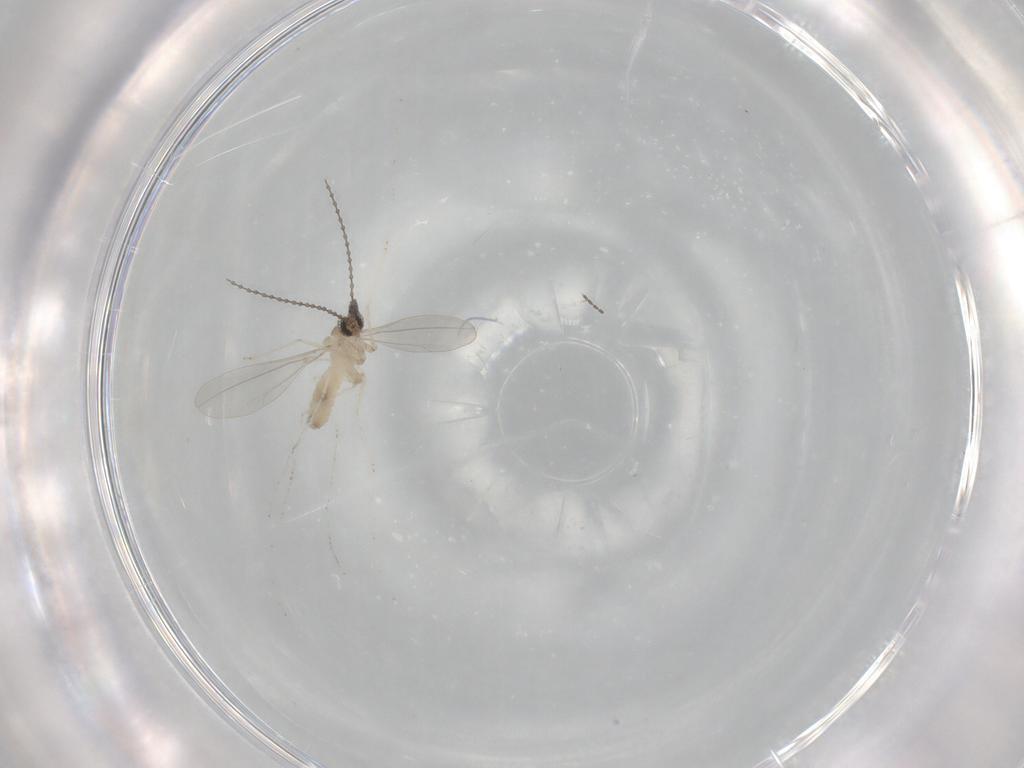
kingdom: Animalia
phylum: Arthropoda
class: Insecta
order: Diptera
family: Cecidomyiidae
